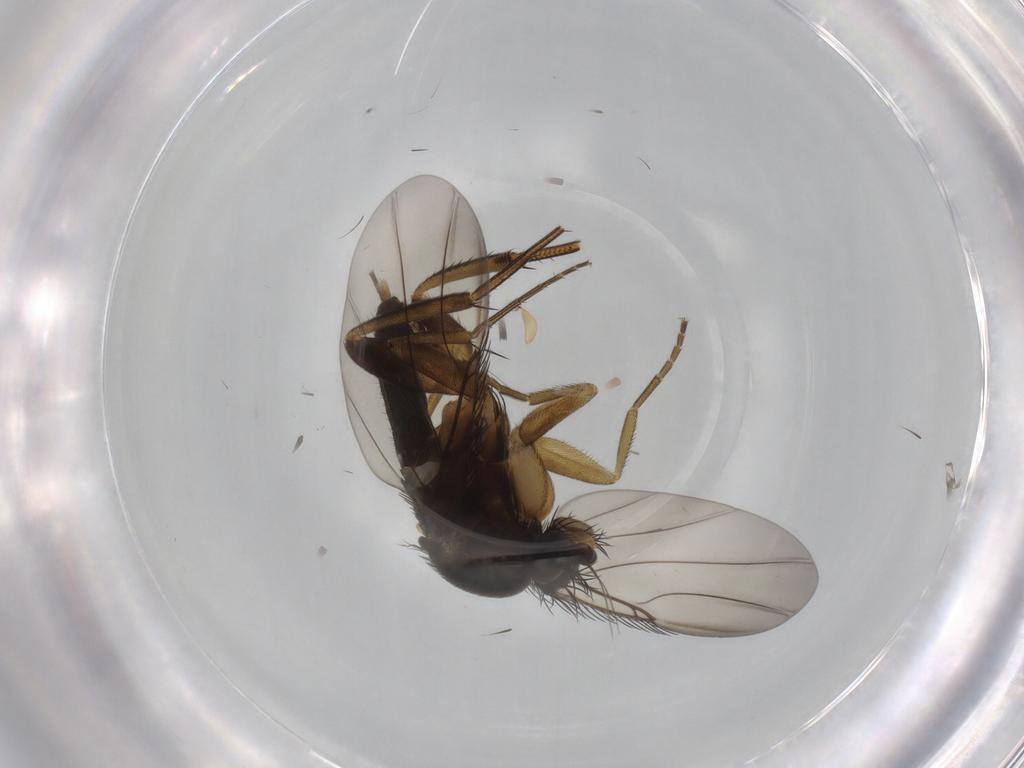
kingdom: Animalia
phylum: Arthropoda
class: Insecta
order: Diptera
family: Phoridae
